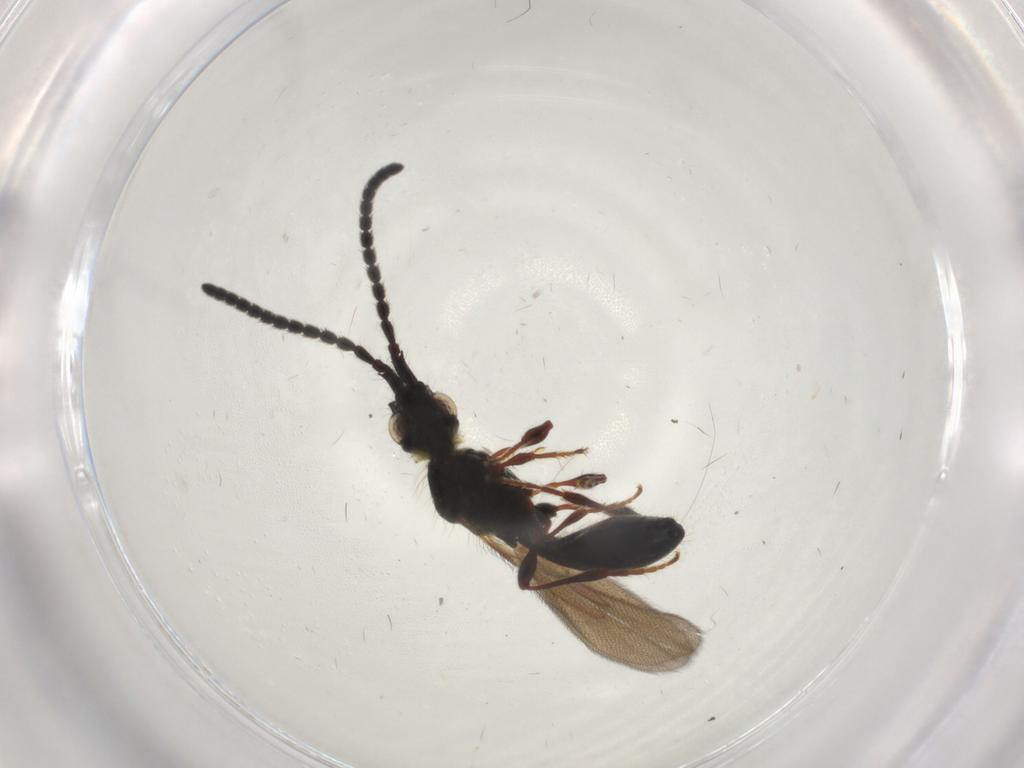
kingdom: Animalia
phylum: Arthropoda
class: Insecta
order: Hymenoptera
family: Diapriidae
